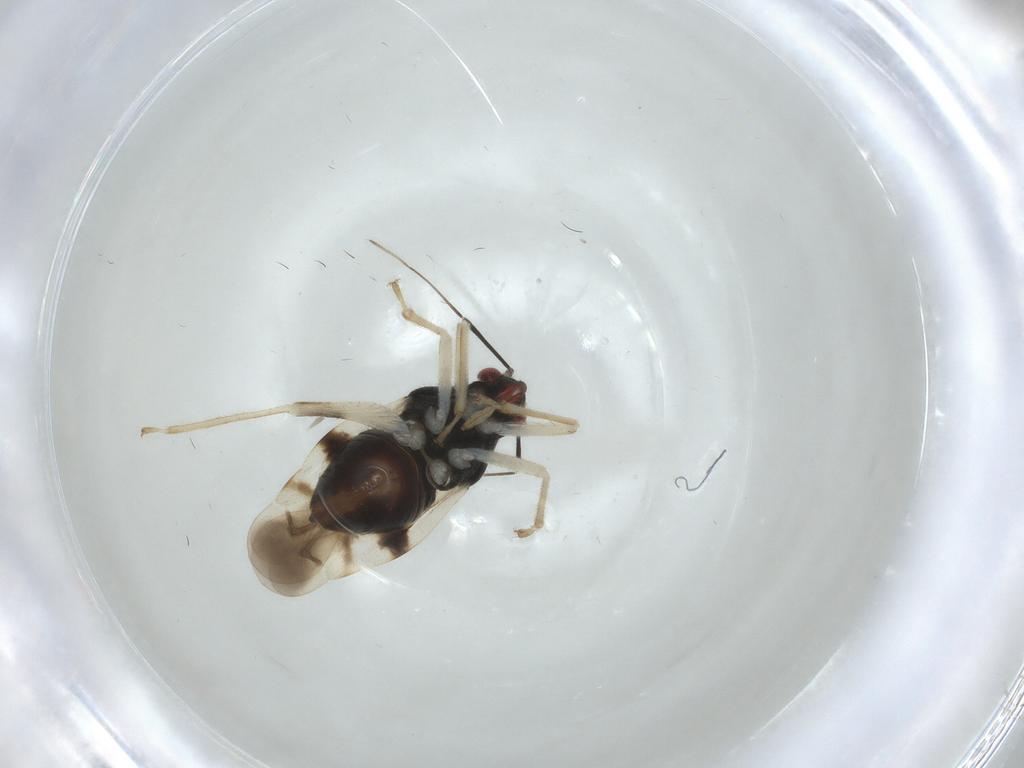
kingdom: Animalia
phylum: Arthropoda
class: Insecta
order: Hemiptera
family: Miridae
